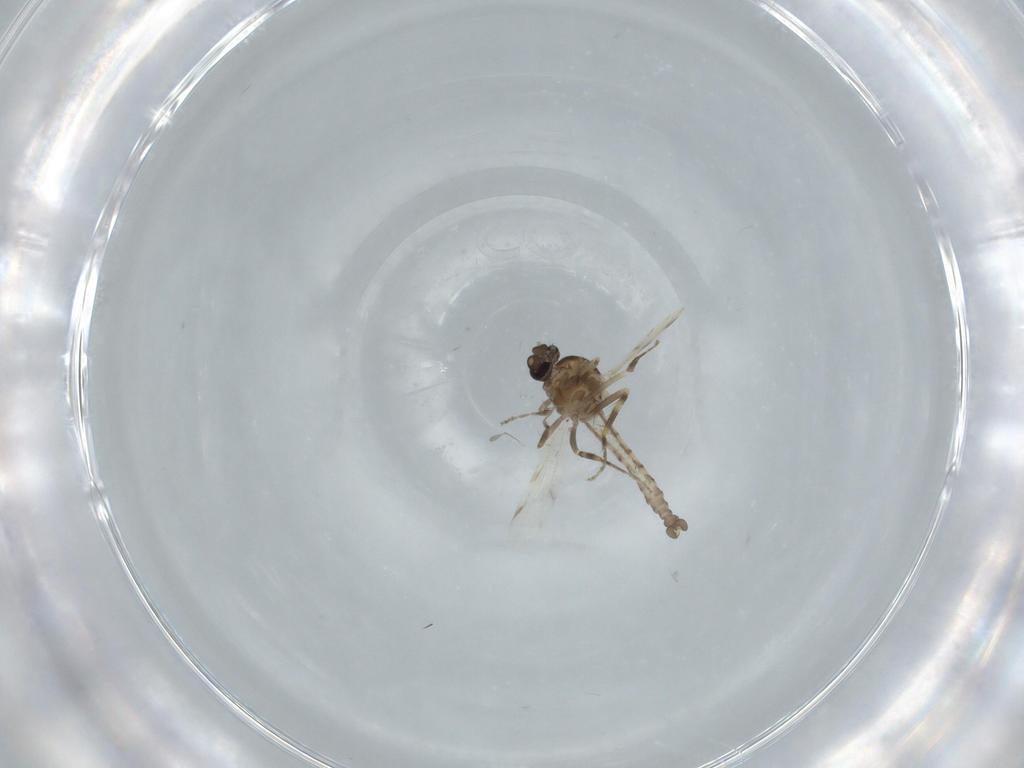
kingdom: Animalia
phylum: Arthropoda
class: Insecta
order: Diptera
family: Ceratopogonidae
